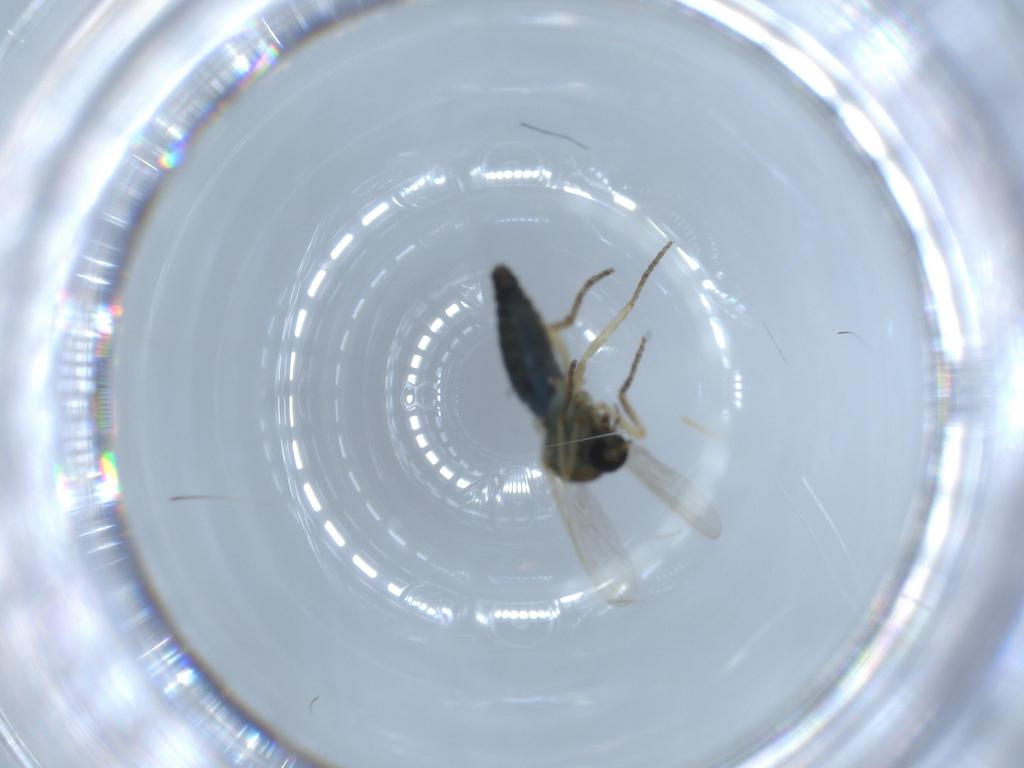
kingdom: Animalia
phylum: Arthropoda
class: Insecta
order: Diptera
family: Ceratopogonidae
